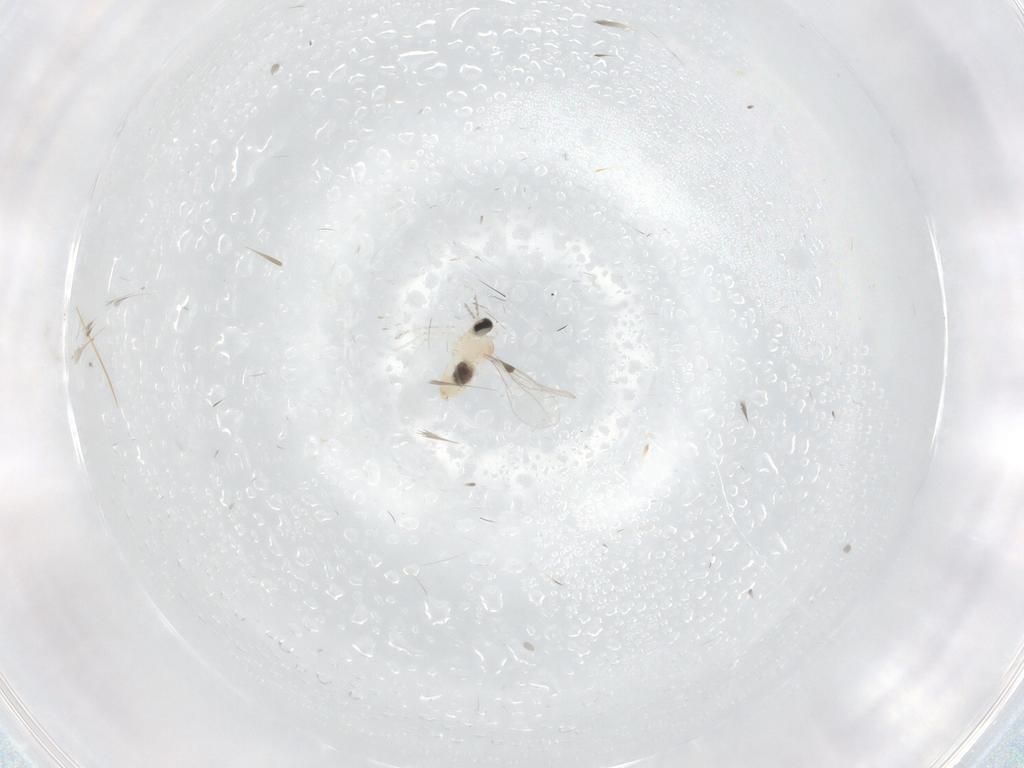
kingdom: Animalia
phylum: Arthropoda
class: Insecta
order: Diptera
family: Cecidomyiidae
